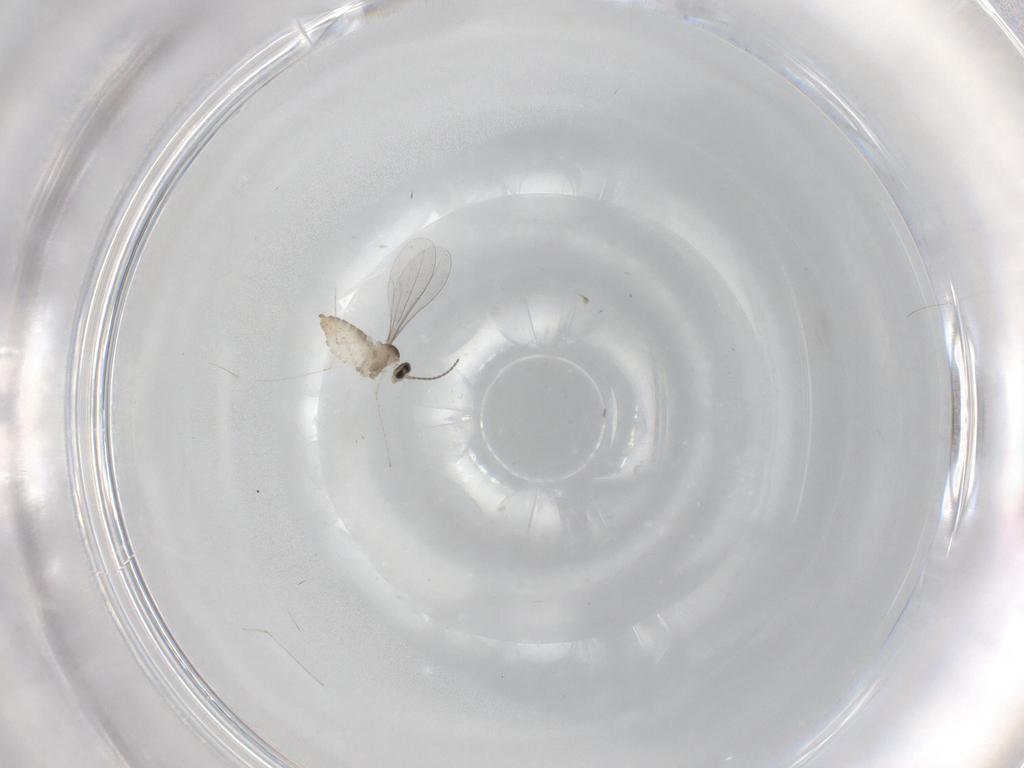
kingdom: Animalia
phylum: Arthropoda
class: Insecta
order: Diptera
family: Cecidomyiidae
